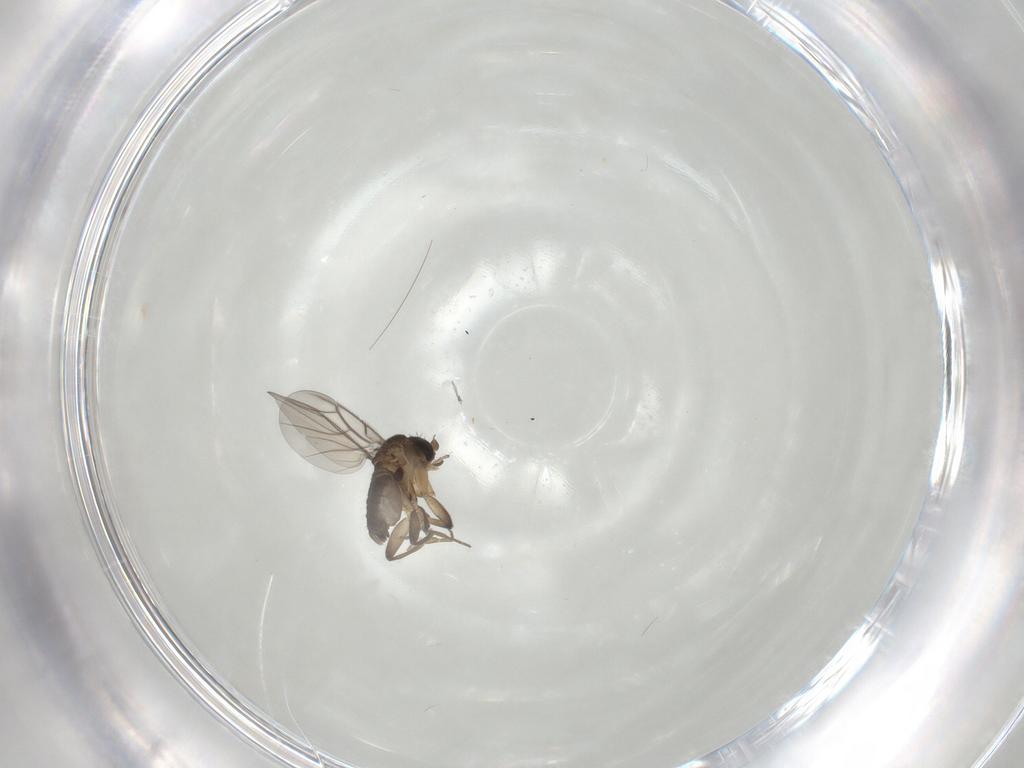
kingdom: Animalia
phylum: Arthropoda
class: Insecta
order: Diptera
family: Phoridae
